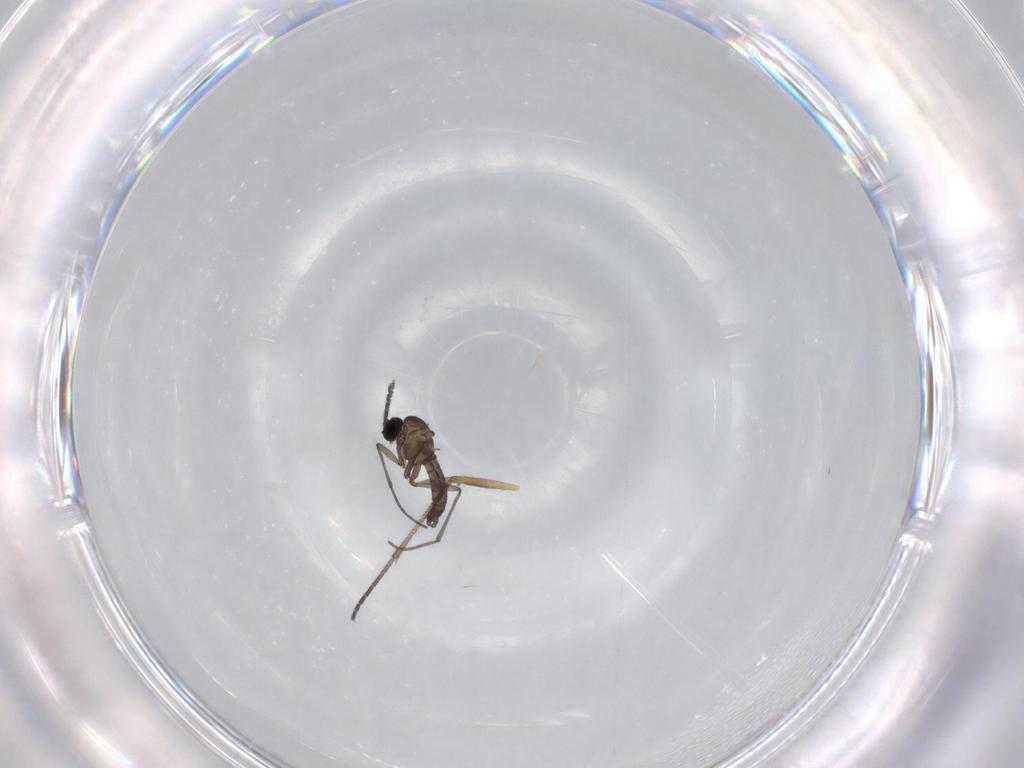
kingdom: Animalia
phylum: Arthropoda
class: Insecta
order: Diptera
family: Sciaridae
